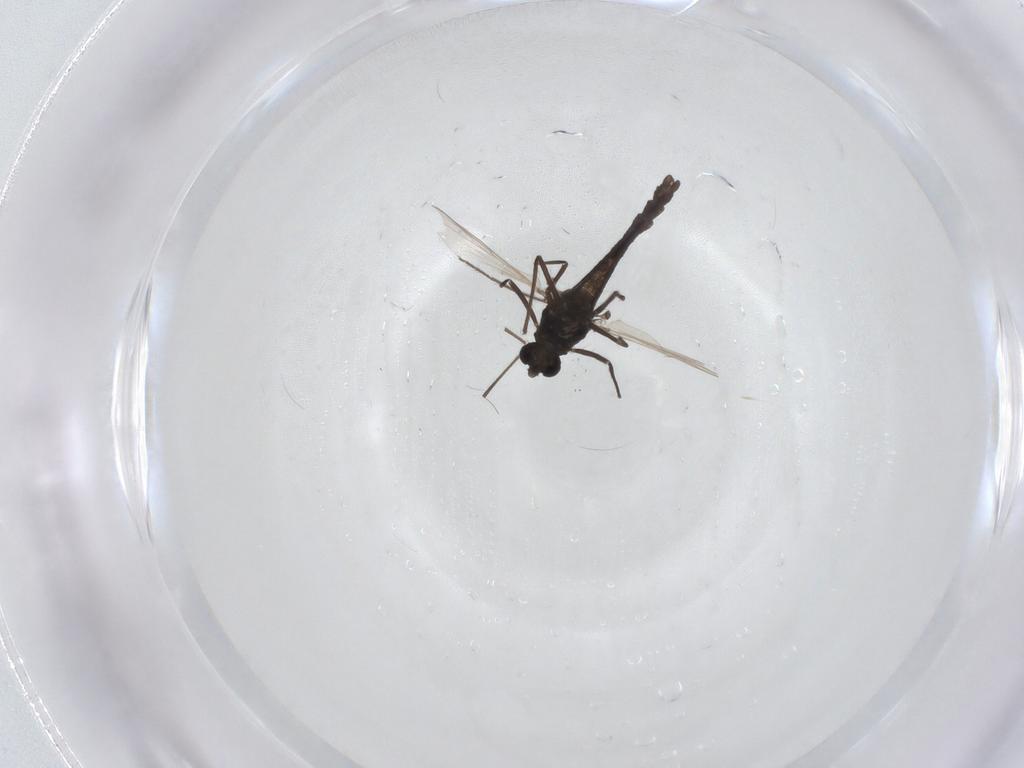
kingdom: Animalia
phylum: Arthropoda
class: Insecta
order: Diptera
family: Chironomidae
